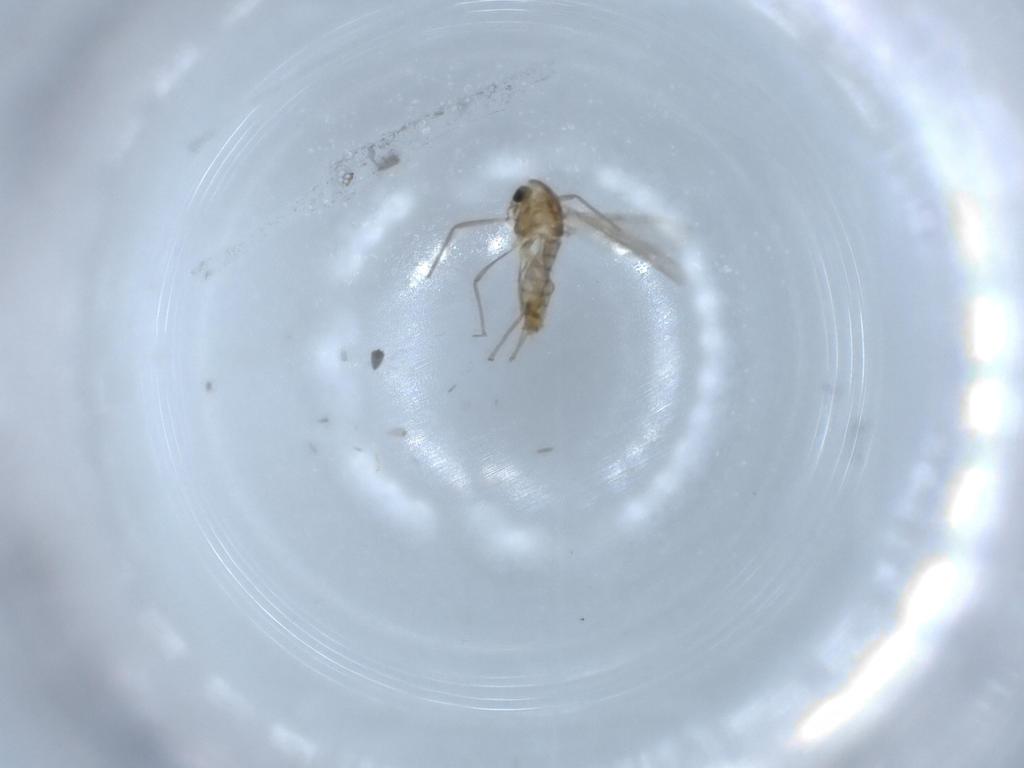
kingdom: Animalia
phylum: Arthropoda
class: Insecta
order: Diptera
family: Chironomidae
